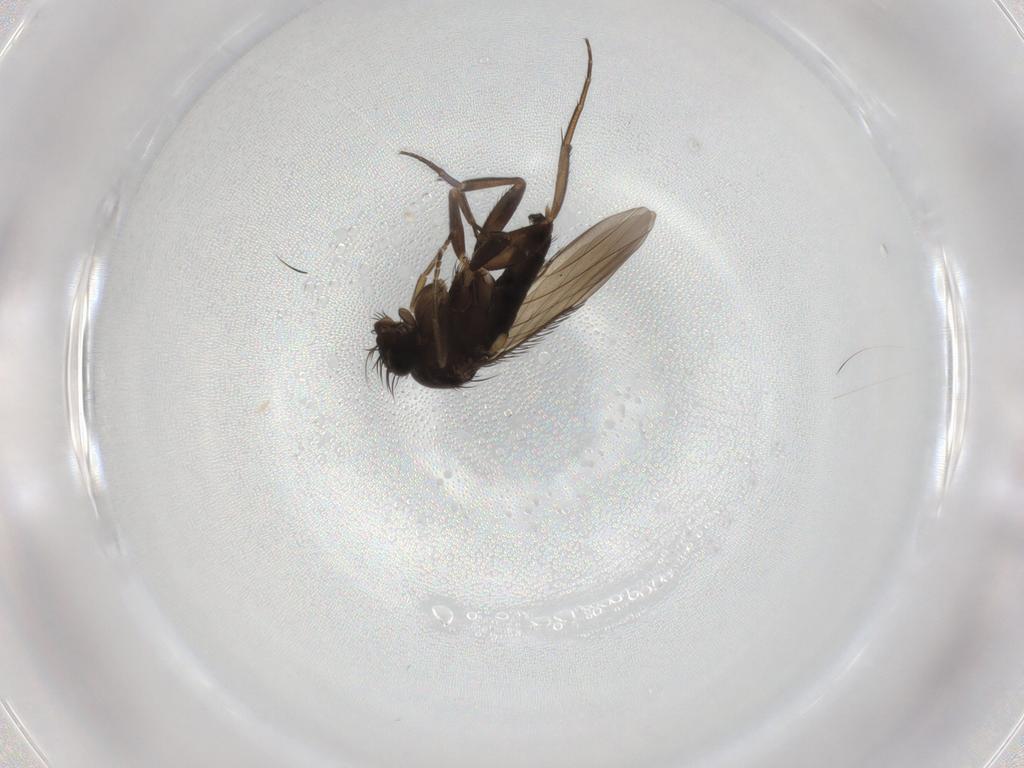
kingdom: Animalia
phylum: Arthropoda
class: Insecta
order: Diptera
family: Phoridae
